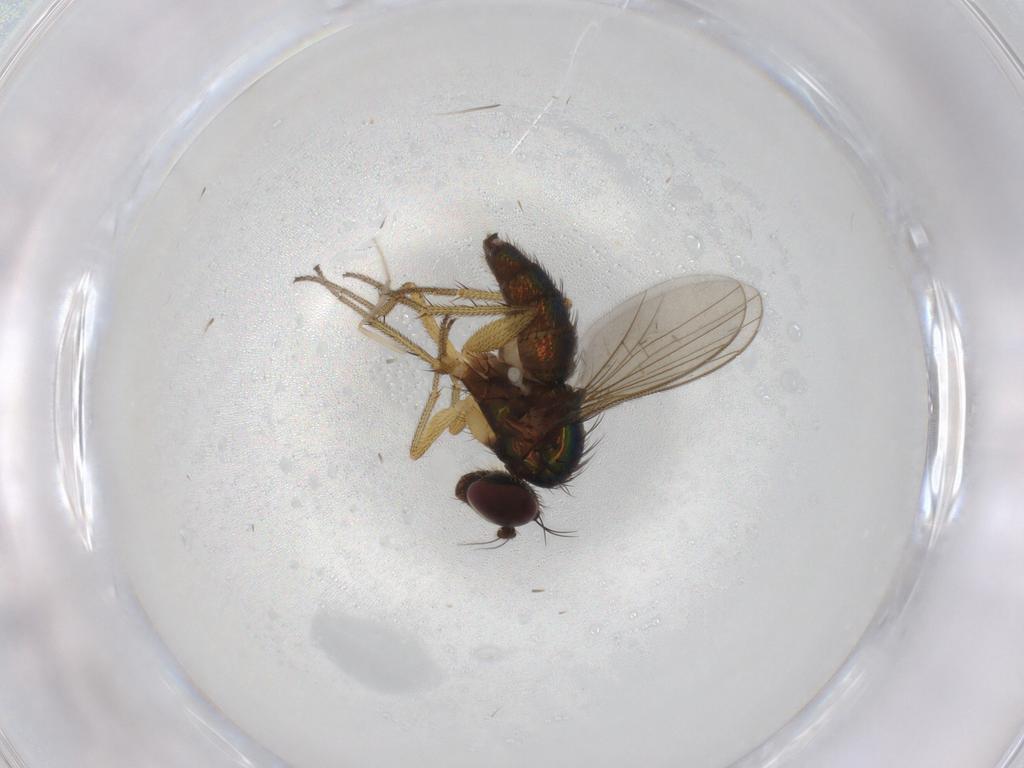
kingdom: Animalia
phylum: Arthropoda
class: Insecta
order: Diptera
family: Chironomidae
